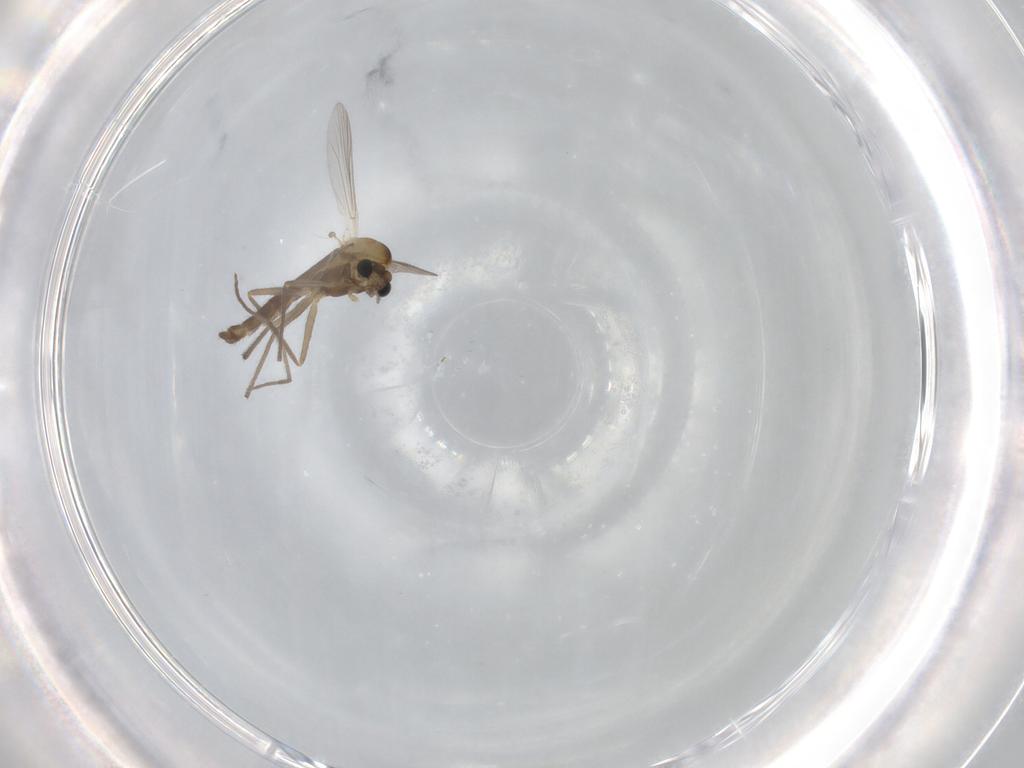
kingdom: Animalia
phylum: Arthropoda
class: Insecta
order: Diptera
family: Chironomidae
